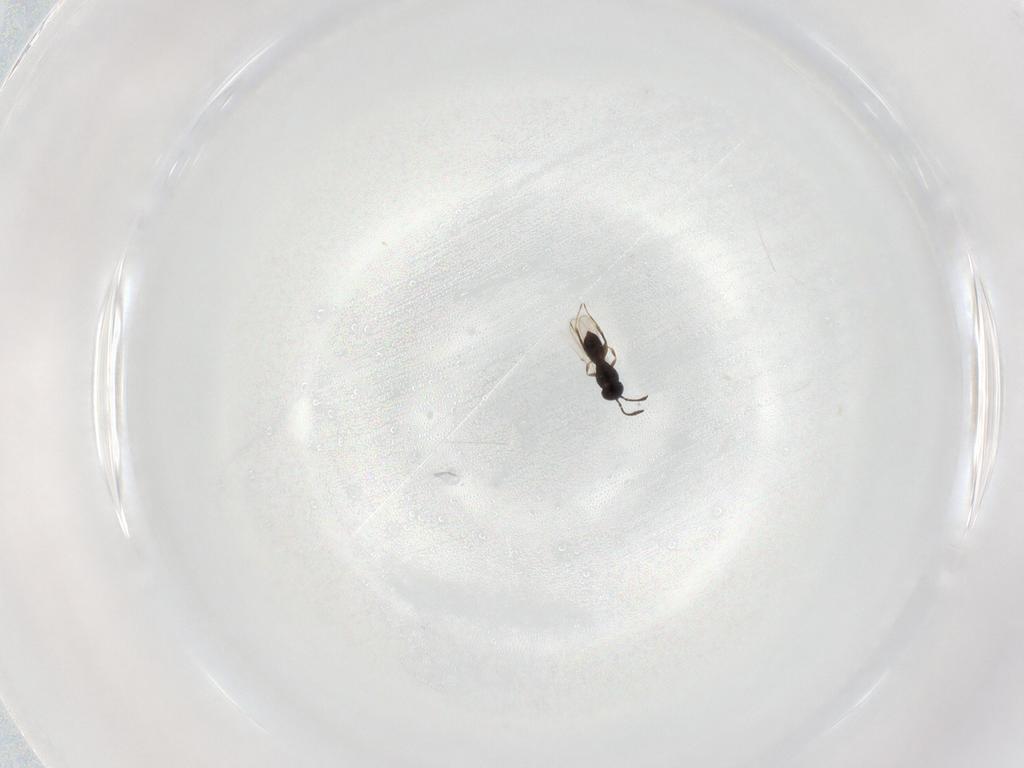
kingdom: Animalia
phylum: Arthropoda
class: Insecta
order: Hymenoptera
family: Scelionidae
